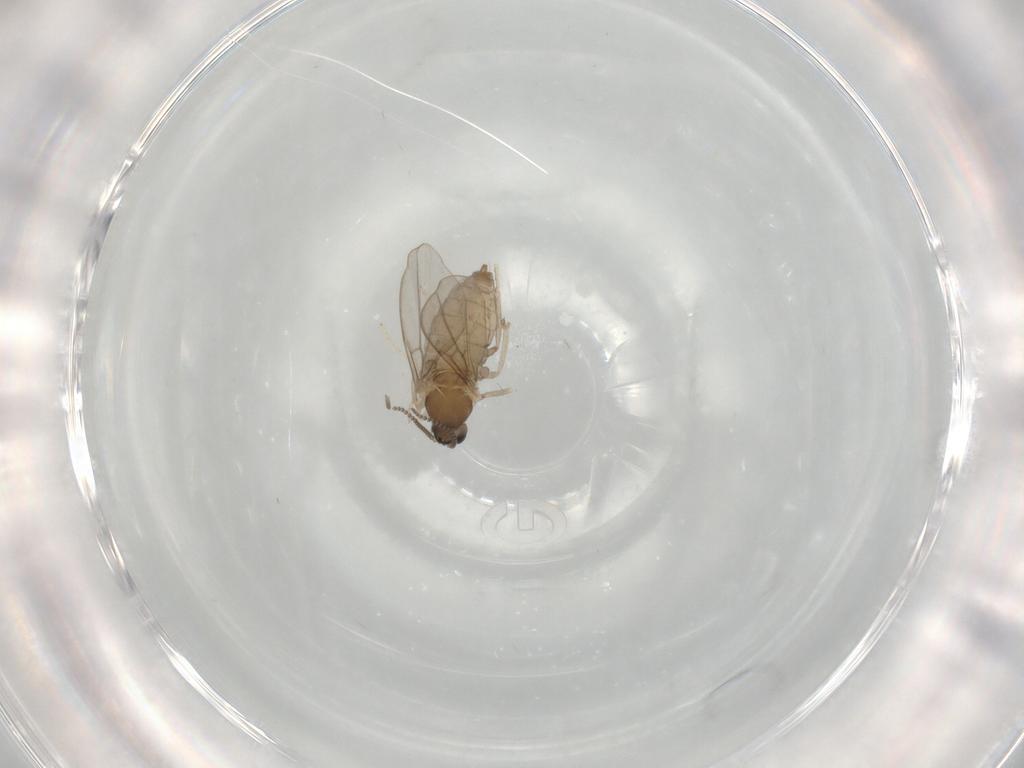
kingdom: Animalia
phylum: Arthropoda
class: Insecta
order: Diptera
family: Cecidomyiidae
